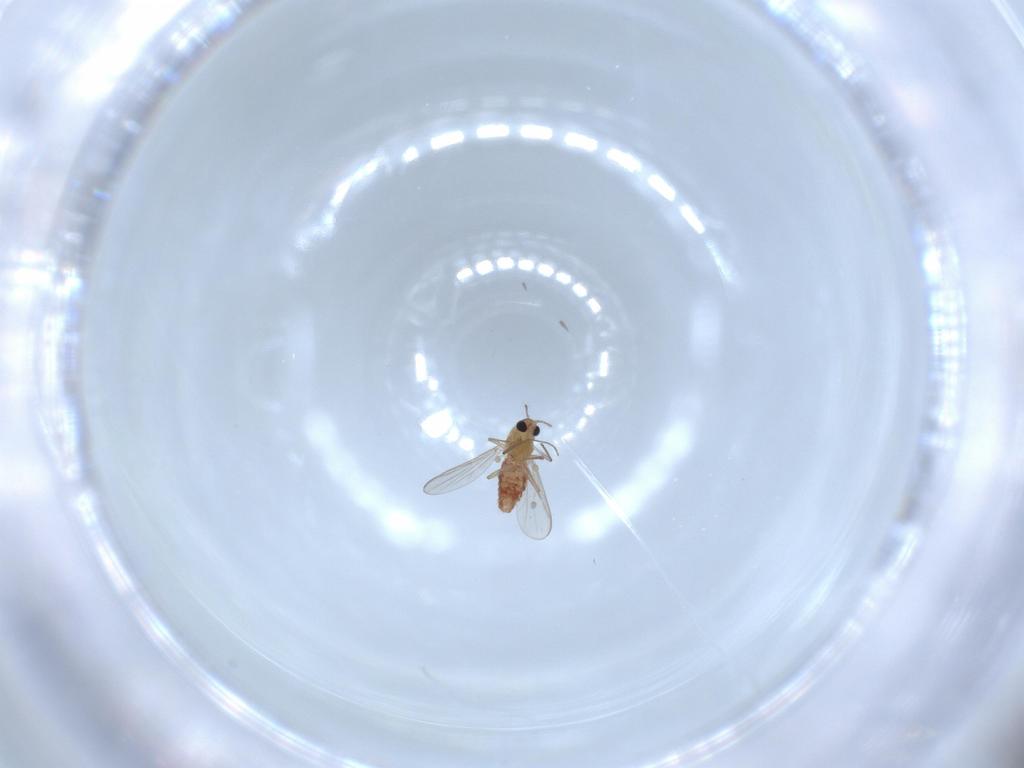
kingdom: Animalia
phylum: Arthropoda
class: Insecta
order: Diptera
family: Chironomidae
